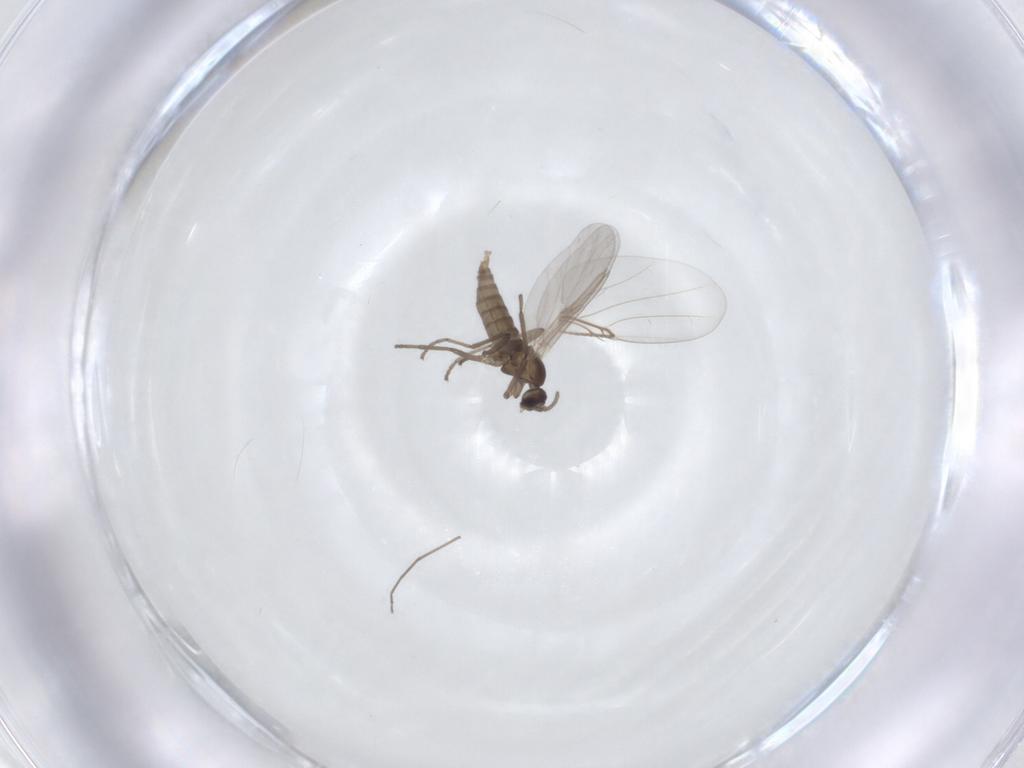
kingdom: Animalia
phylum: Arthropoda
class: Insecta
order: Diptera
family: Cecidomyiidae
